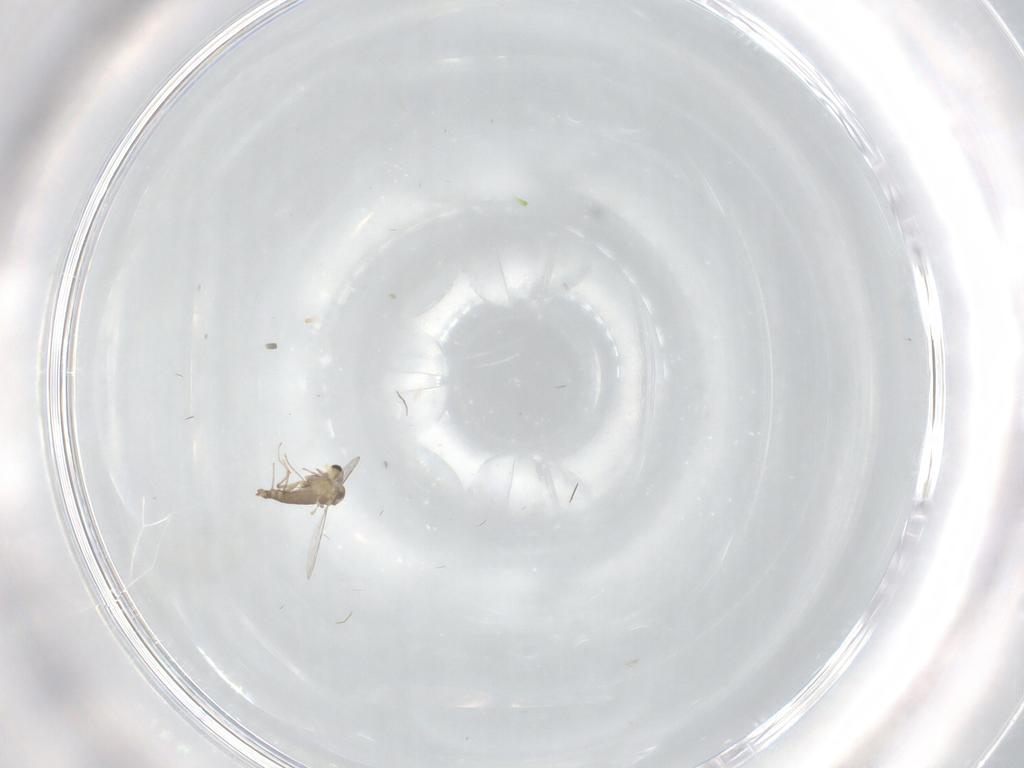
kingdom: Animalia
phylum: Arthropoda
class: Insecta
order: Diptera
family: Chironomidae
